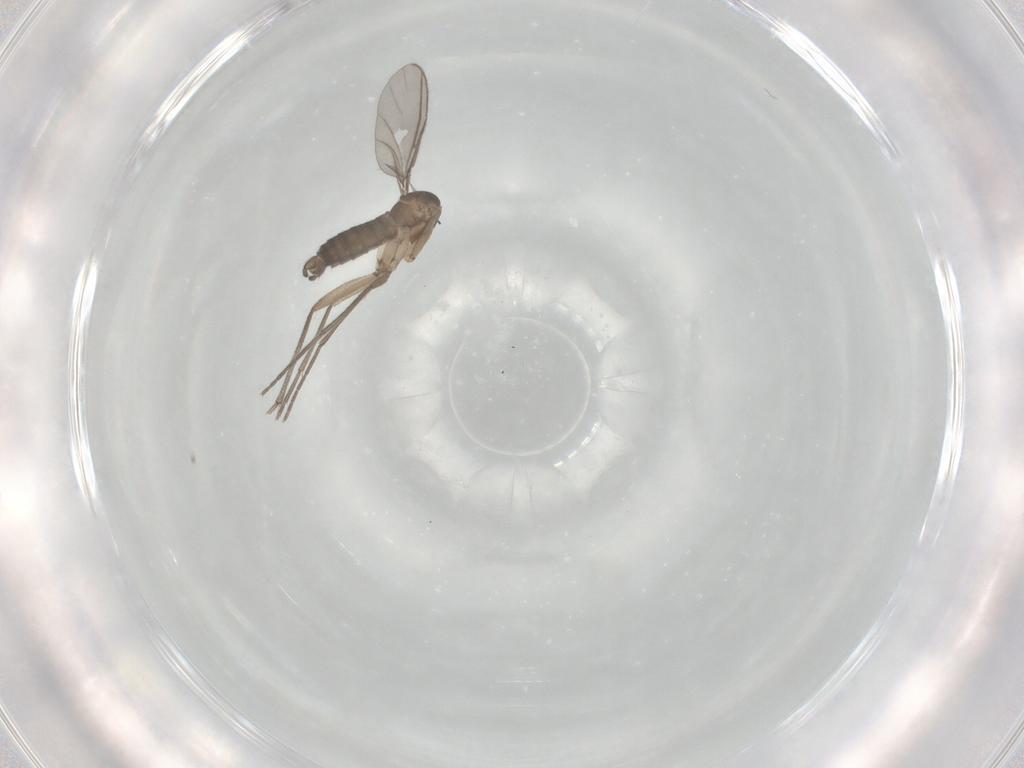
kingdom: Animalia
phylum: Arthropoda
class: Insecta
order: Diptera
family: Sciaridae
